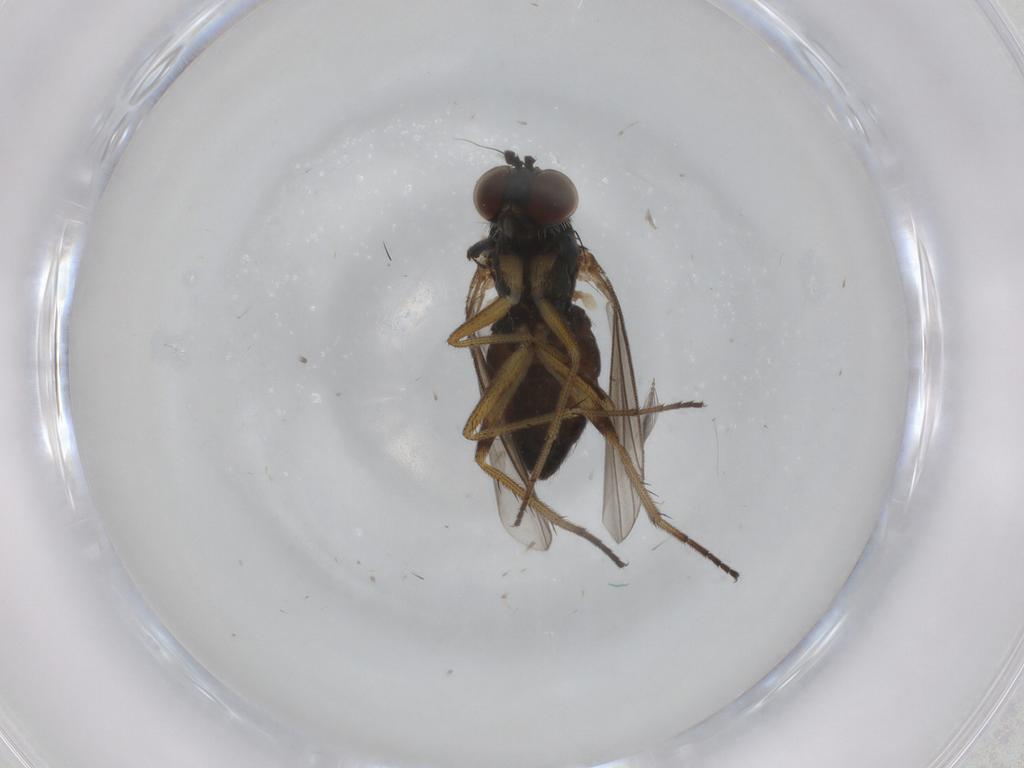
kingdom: Animalia
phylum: Arthropoda
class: Insecta
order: Diptera
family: Chironomidae
